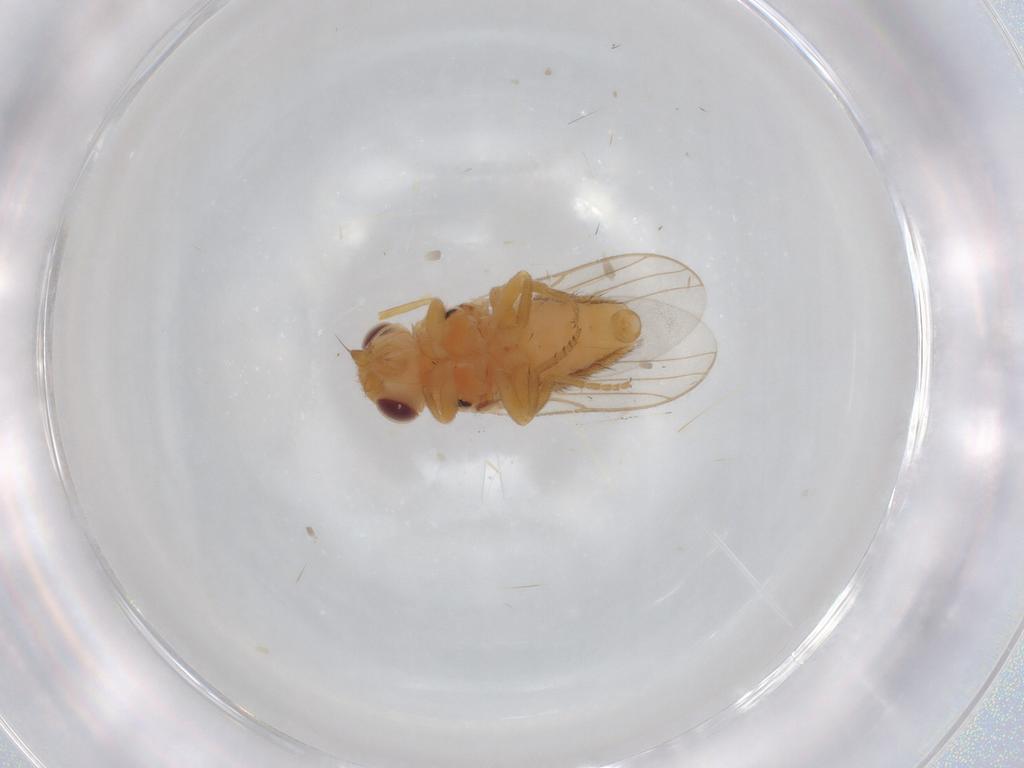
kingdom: Animalia
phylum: Arthropoda
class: Insecta
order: Diptera
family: Chloropidae
